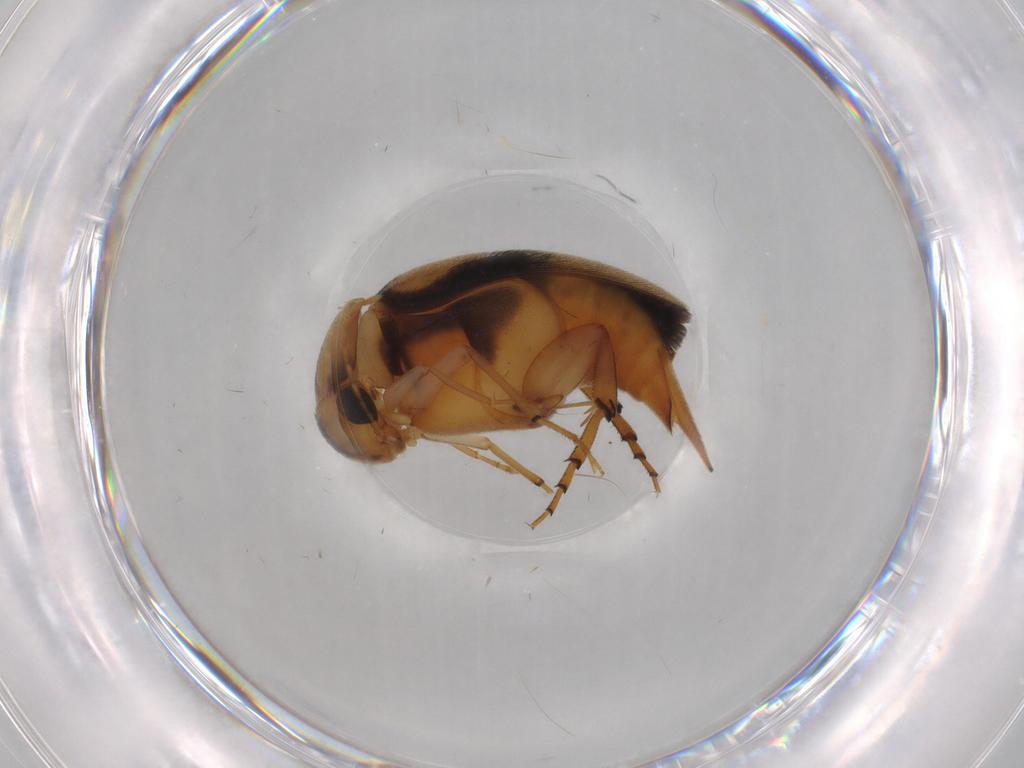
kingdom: Animalia
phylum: Arthropoda
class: Insecta
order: Coleoptera
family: Mordellidae
